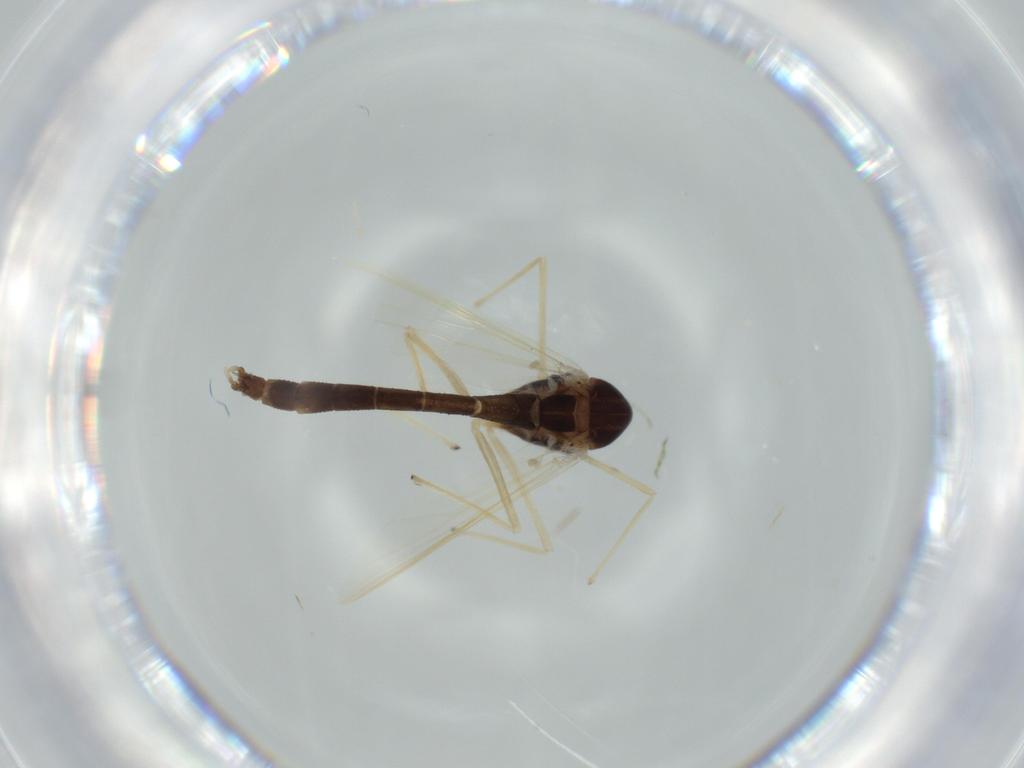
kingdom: Animalia
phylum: Arthropoda
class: Insecta
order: Diptera
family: Chironomidae
